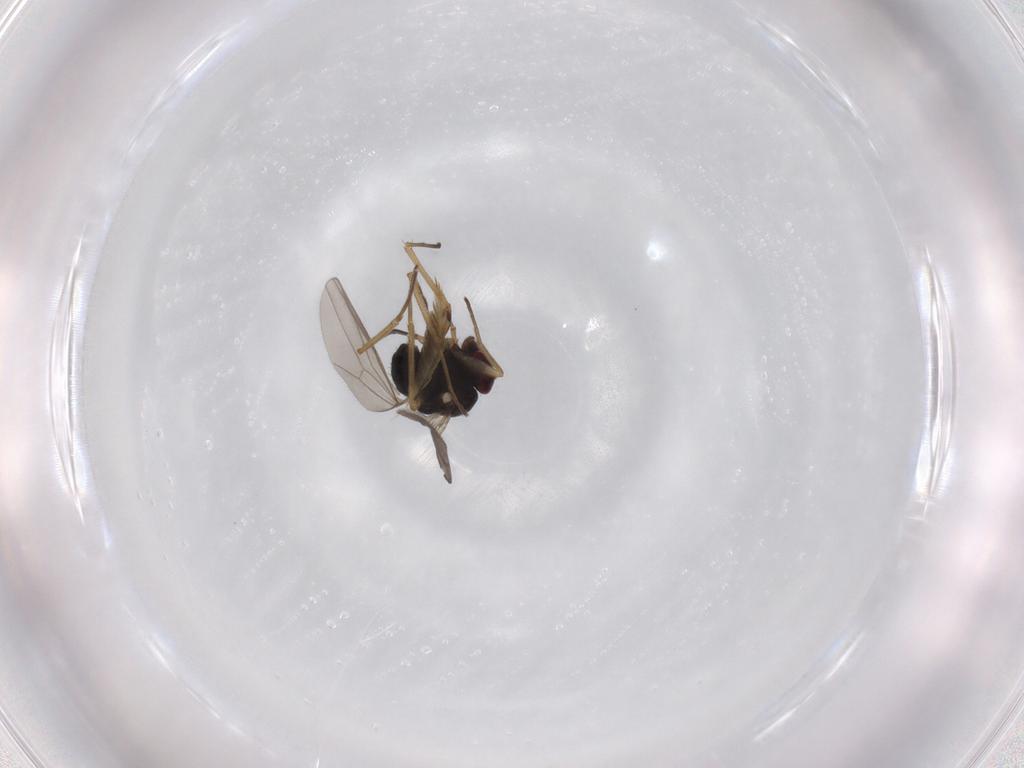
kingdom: Animalia
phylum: Arthropoda
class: Insecta
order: Diptera
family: Dolichopodidae
